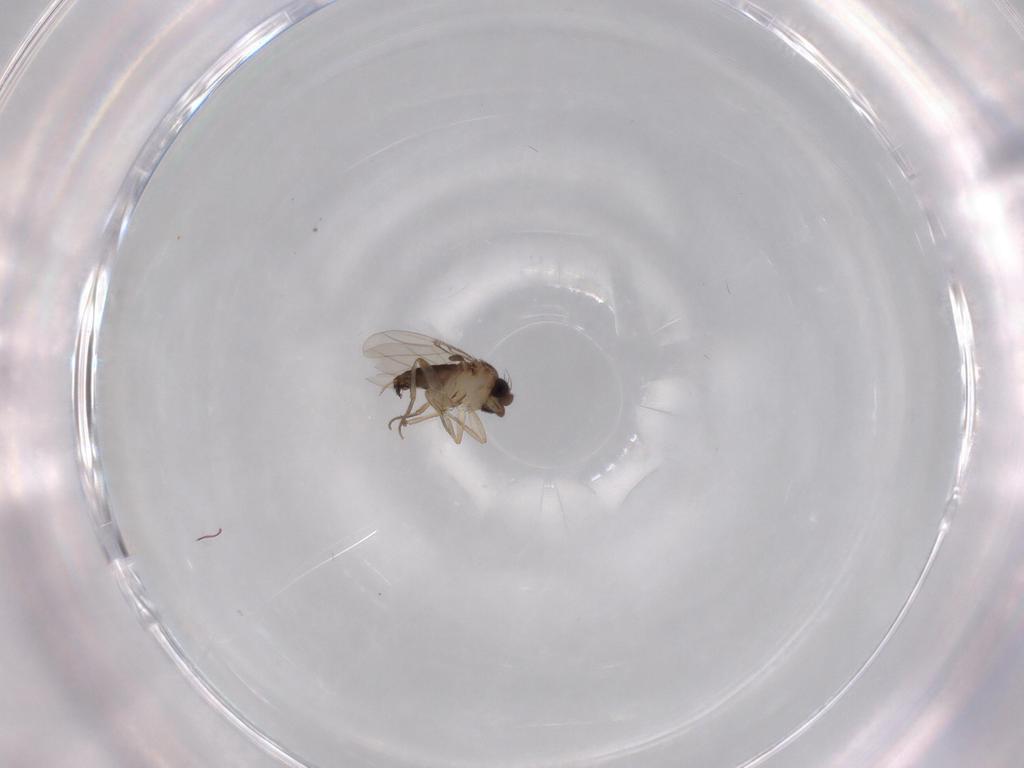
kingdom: Animalia
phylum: Arthropoda
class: Insecta
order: Diptera
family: Phoridae
